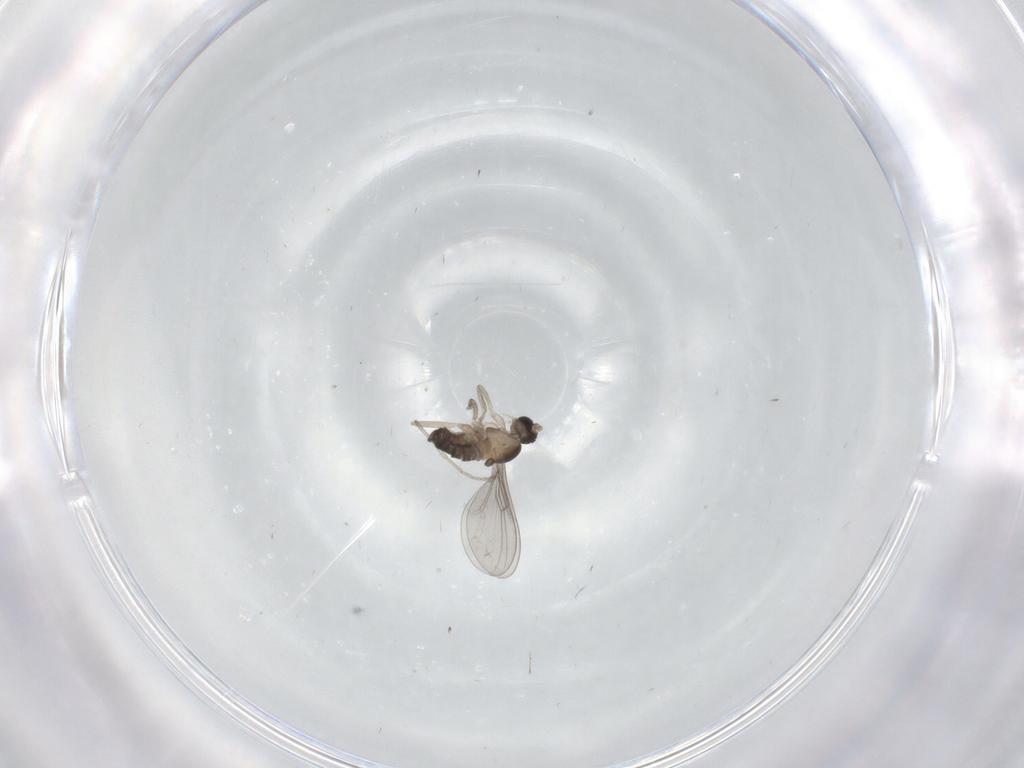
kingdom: Animalia
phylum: Arthropoda
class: Insecta
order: Diptera
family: Cecidomyiidae
